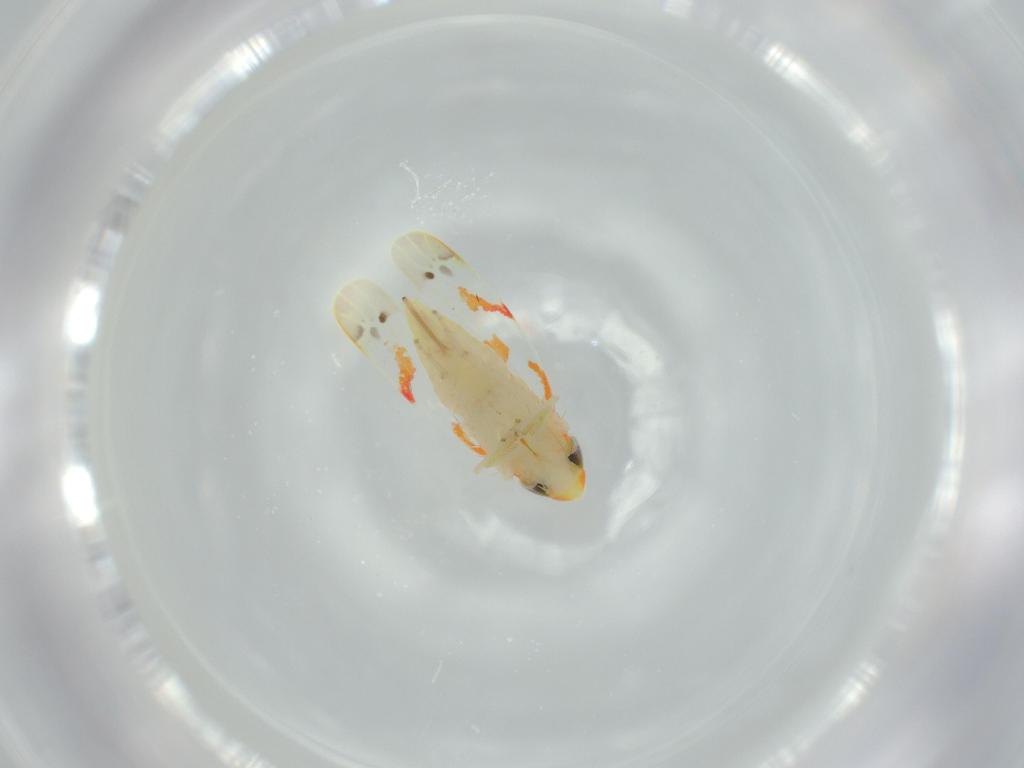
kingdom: Animalia
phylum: Arthropoda
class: Insecta
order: Hemiptera
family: Cicadellidae
